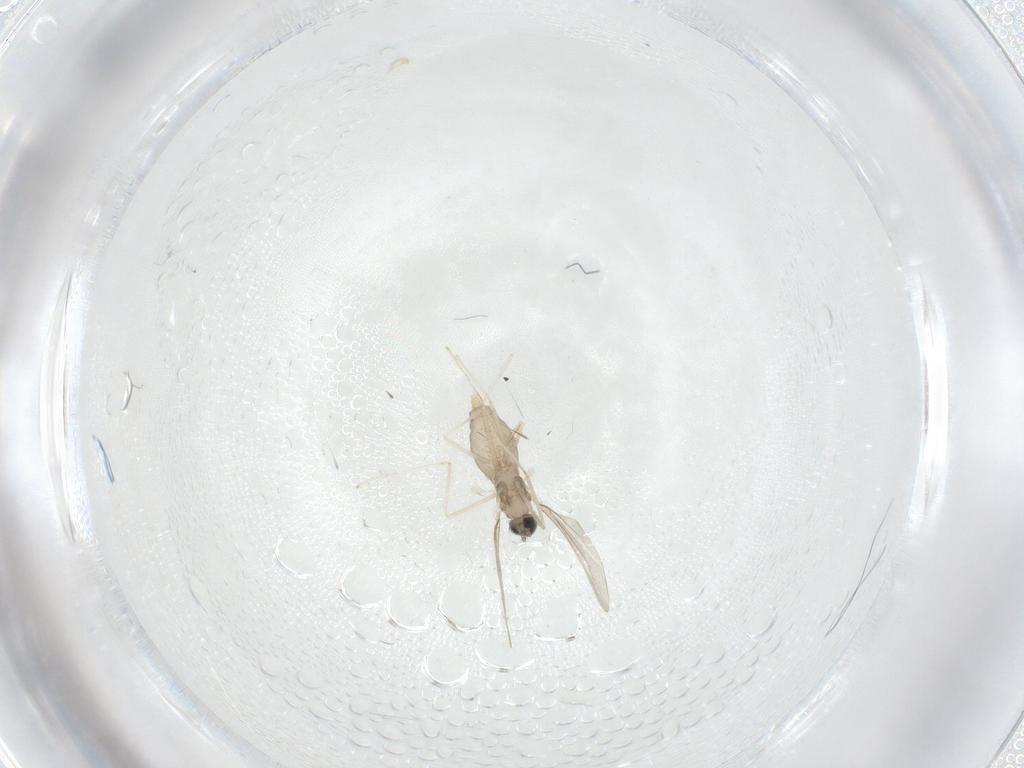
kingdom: Animalia
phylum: Arthropoda
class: Insecta
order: Diptera
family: Cecidomyiidae
